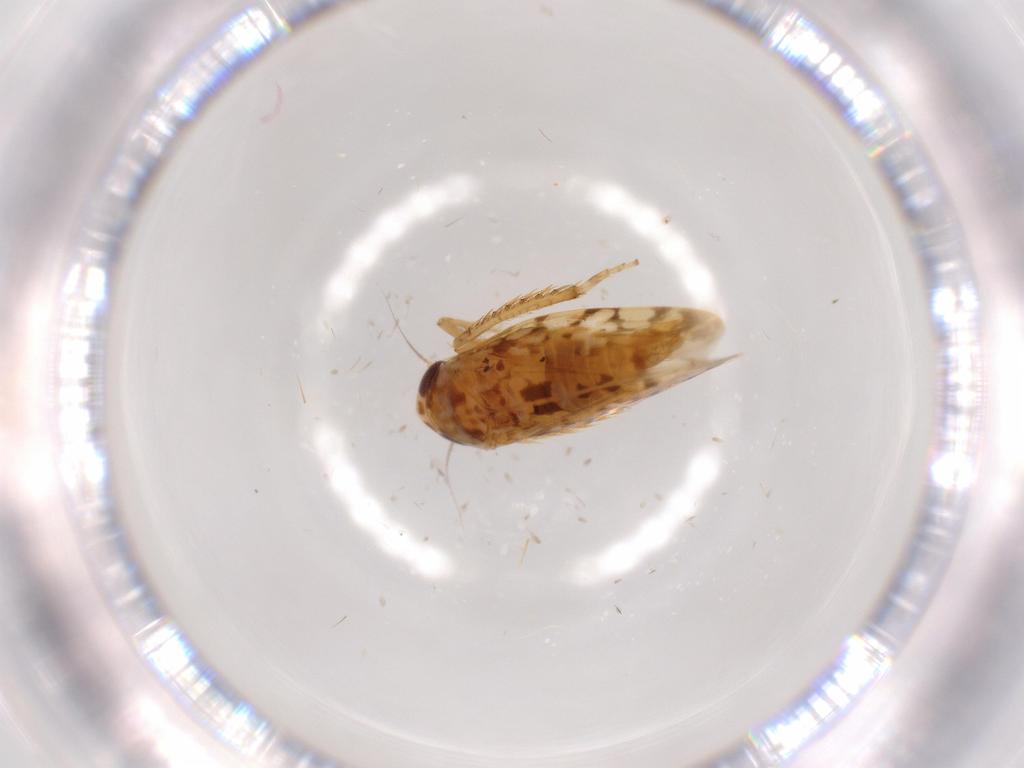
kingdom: Animalia
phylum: Arthropoda
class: Insecta
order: Hemiptera
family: Cicadellidae
